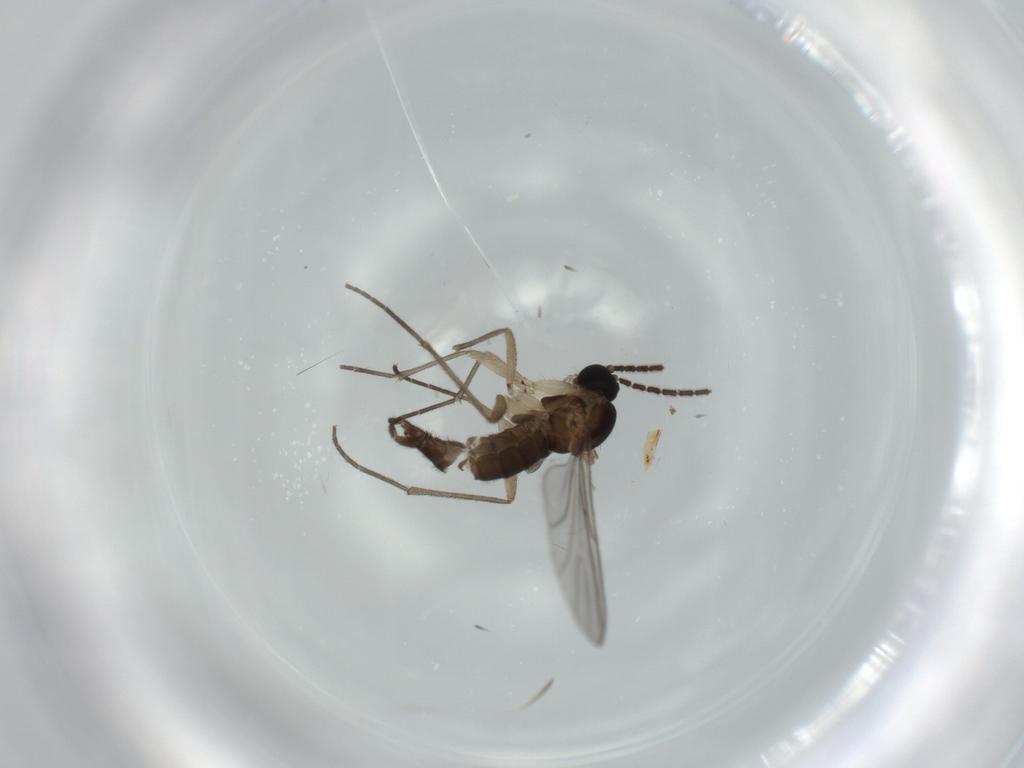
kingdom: Animalia
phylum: Arthropoda
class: Insecta
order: Diptera
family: Sciaridae
